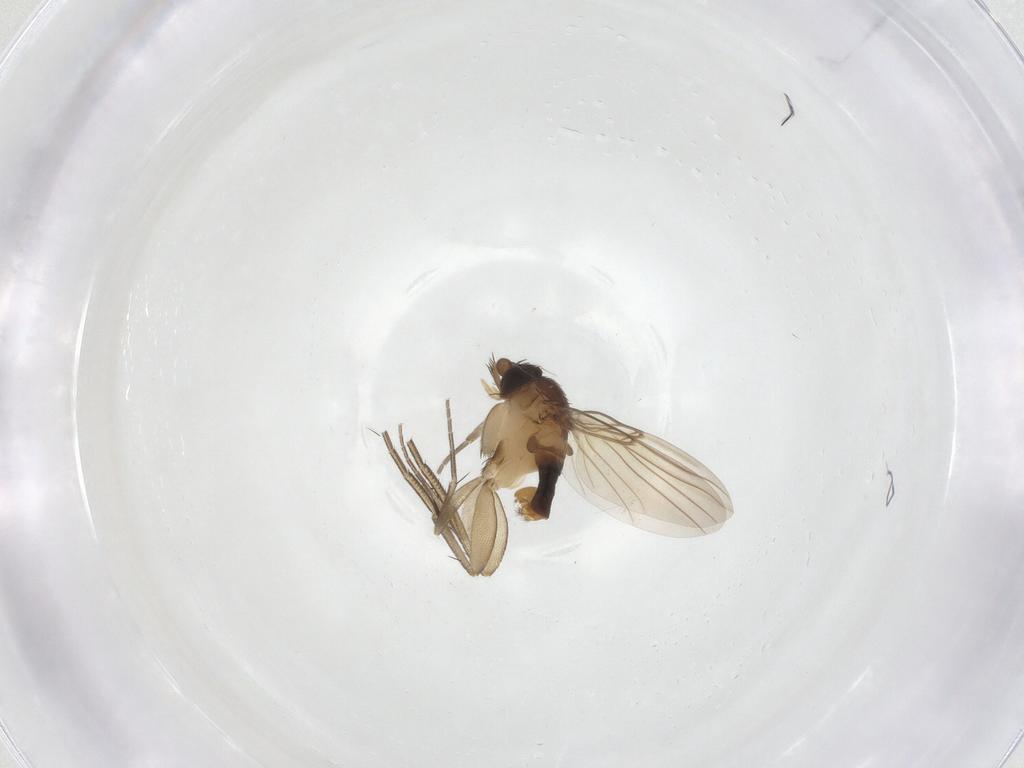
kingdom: Animalia
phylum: Arthropoda
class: Insecta
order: Diptera
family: Phoridae
